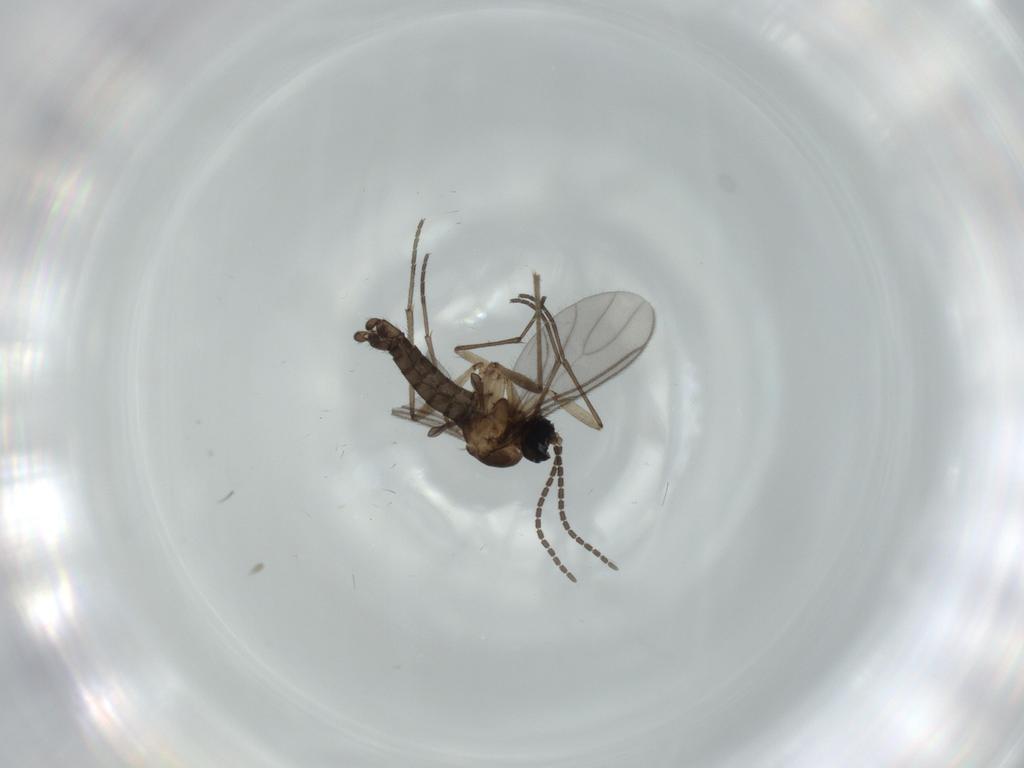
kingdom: Animalia
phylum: Arthropoda
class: Insecta
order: Diptera
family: Sciaridae
